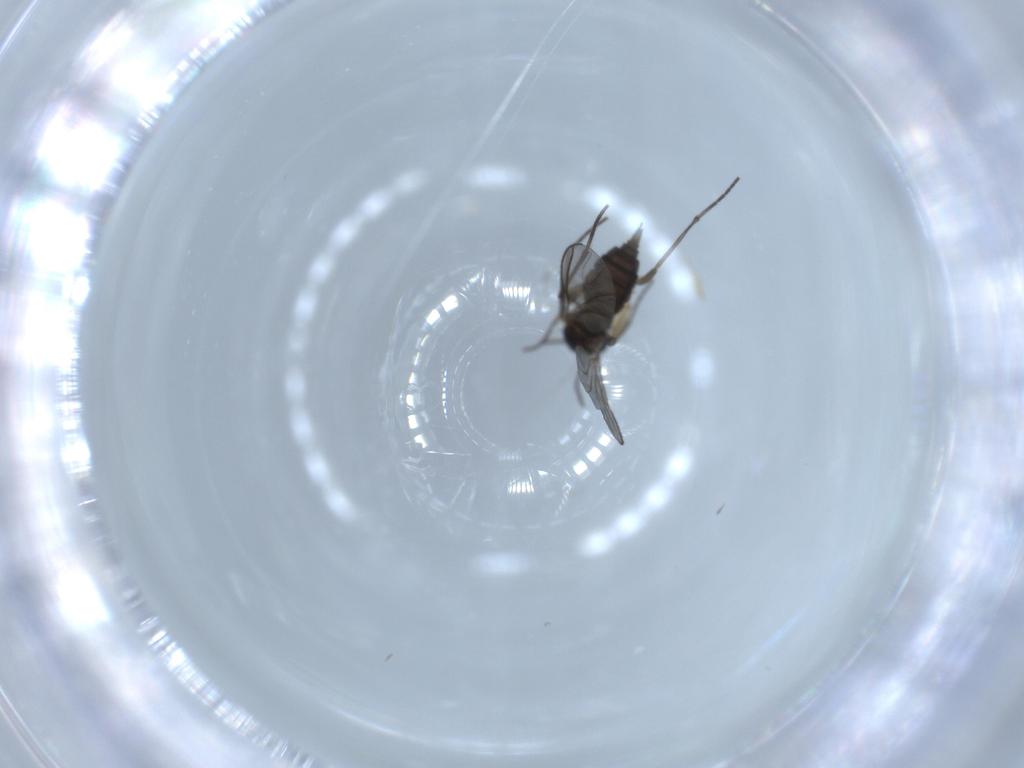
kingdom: Animalia
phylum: Arthropoda
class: Insecta
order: Diptera
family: Sciaridae
